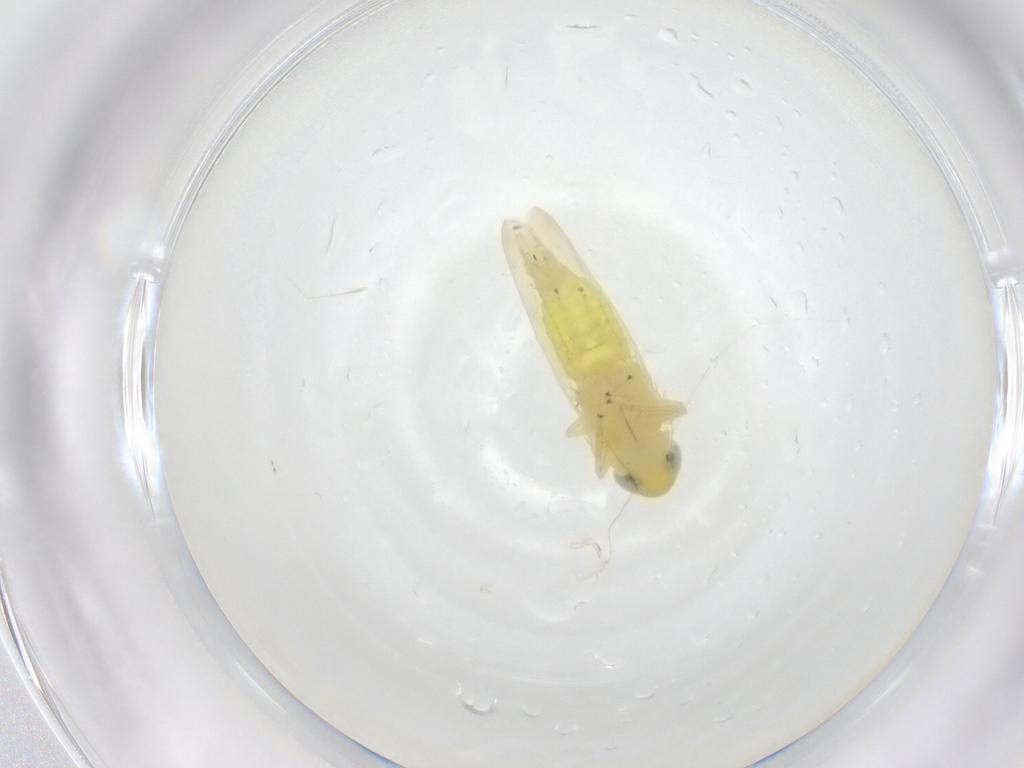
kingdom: Animalia
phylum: Arthropoda
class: Insecta
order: Hemiptera
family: Cicadellidae
